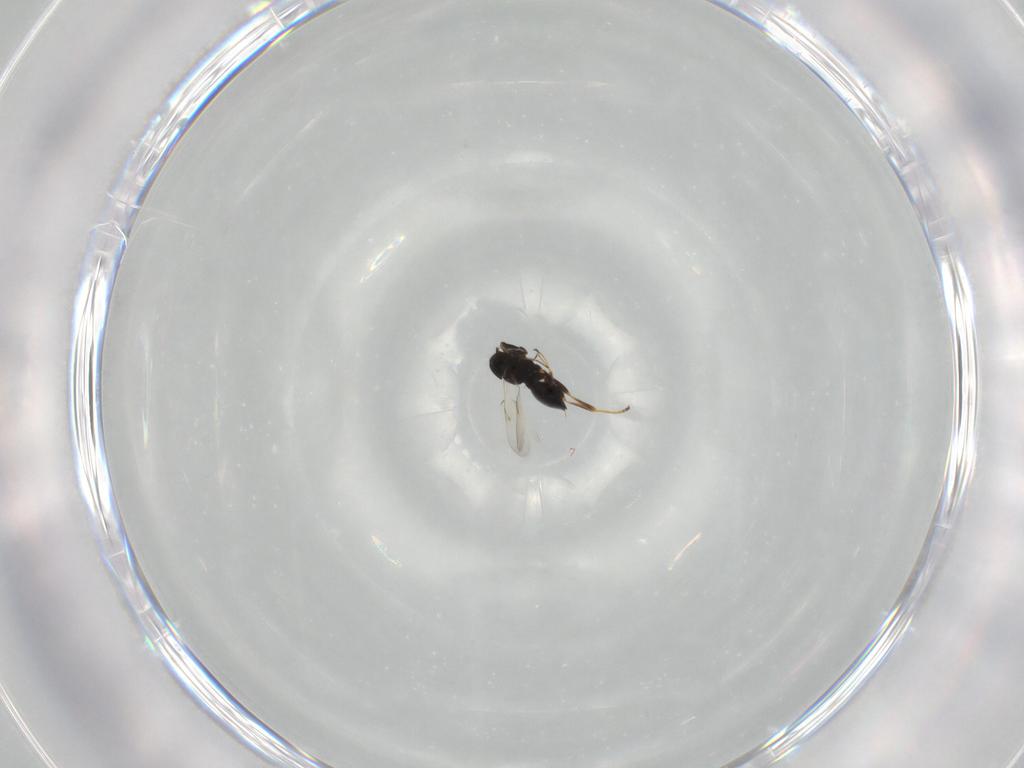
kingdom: Animalia
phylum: Arthropoda
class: Insecta
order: Hymenoptera
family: Scelionidae
